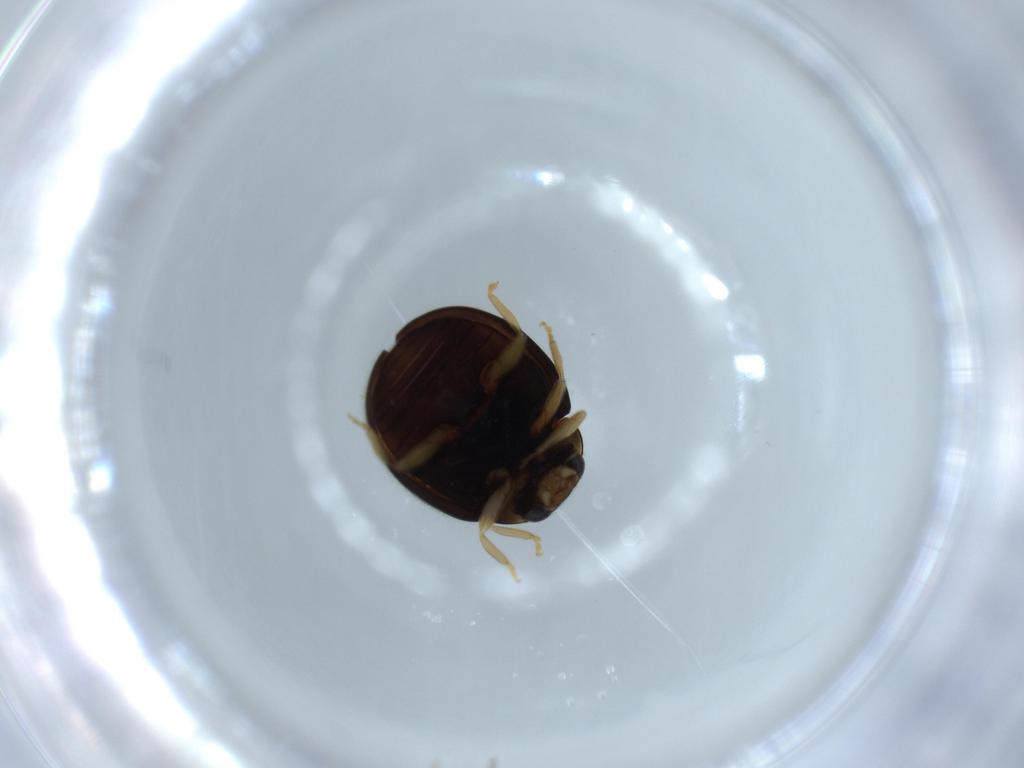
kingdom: Animalia
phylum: Arthropoda
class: Insecta
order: Coleoptera
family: Coccinellidae
